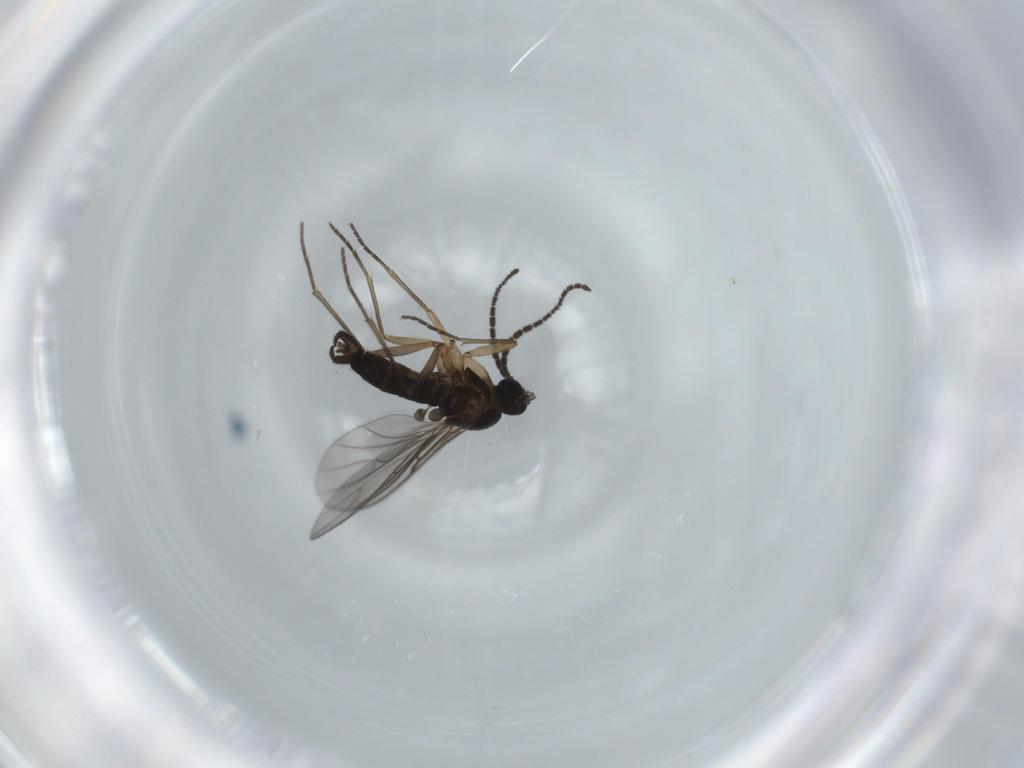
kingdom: Animalia
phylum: Arthropoda
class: Insecta
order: Diptera
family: Sciaridae
